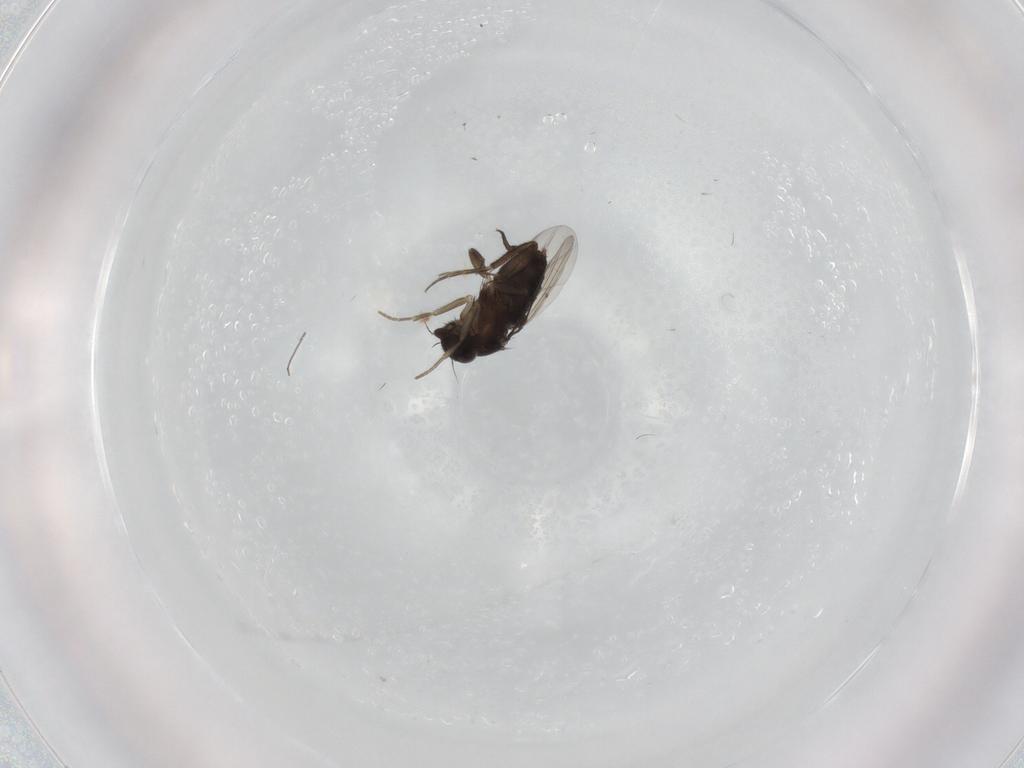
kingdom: Animalia
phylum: Arthropoda
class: Insecta
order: Diptera
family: Phoridae
